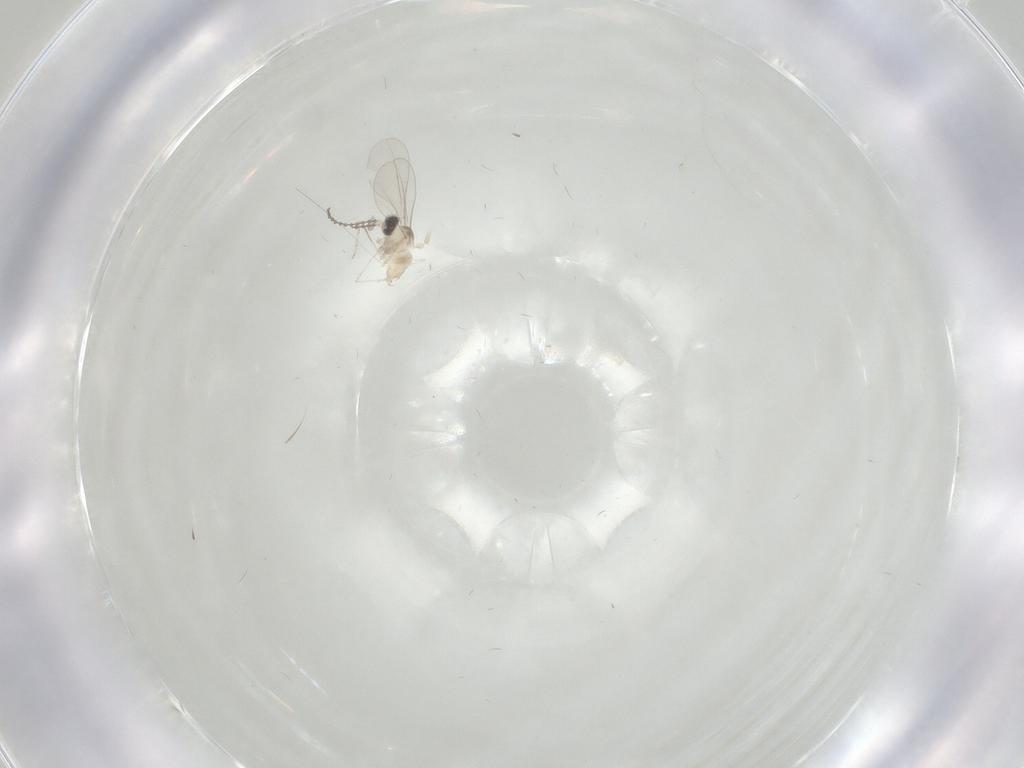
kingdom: Animalia
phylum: Arthropoda
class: Insecta
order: Diptera
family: Cecidomyiidae
